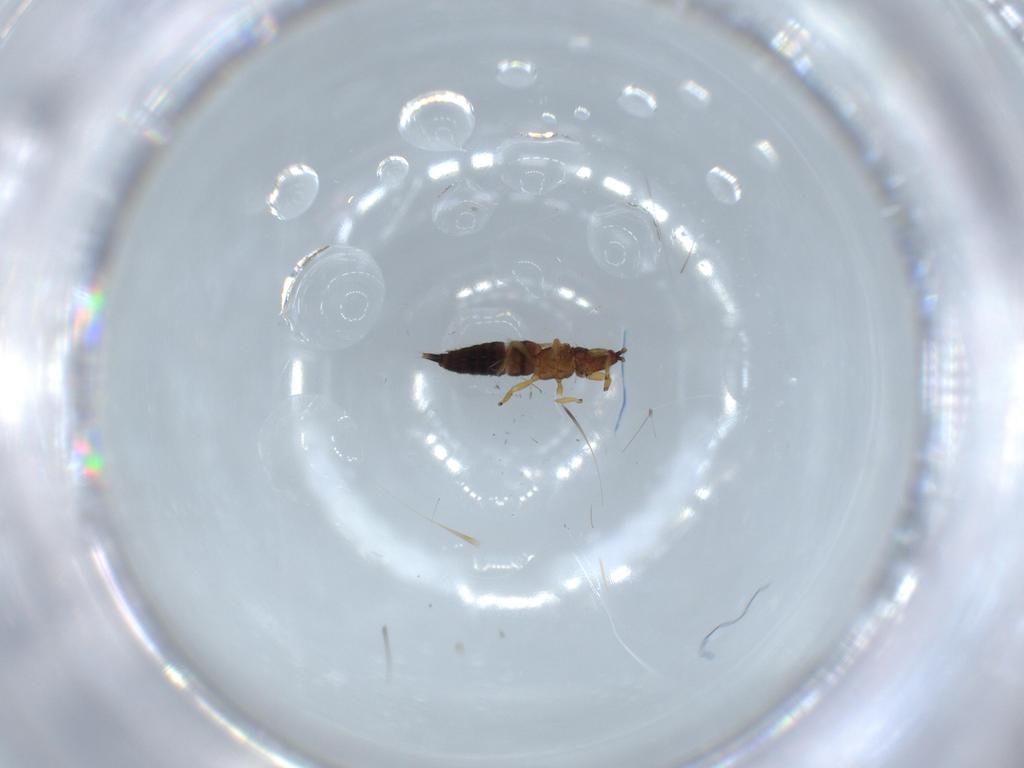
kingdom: Animalia
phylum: Arthropoda
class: Insecta
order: Thysanoptera
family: Phlaeothripidae
